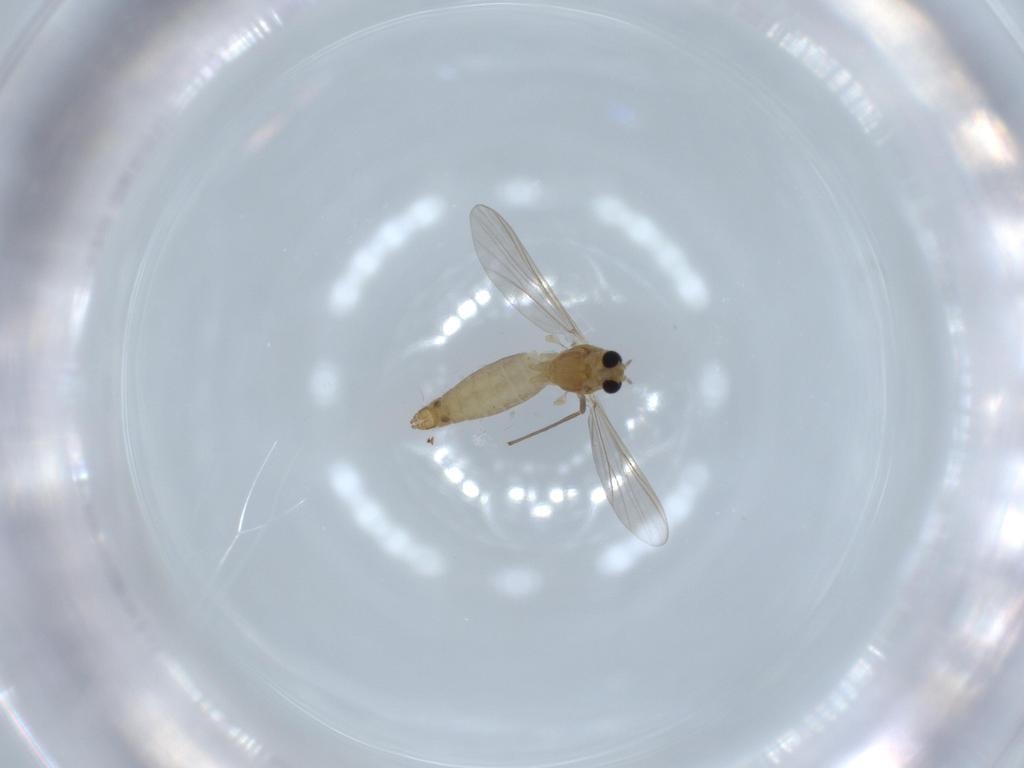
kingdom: Animalia
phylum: Arthropoda
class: Insecta
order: Diptera
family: Chironomidae
